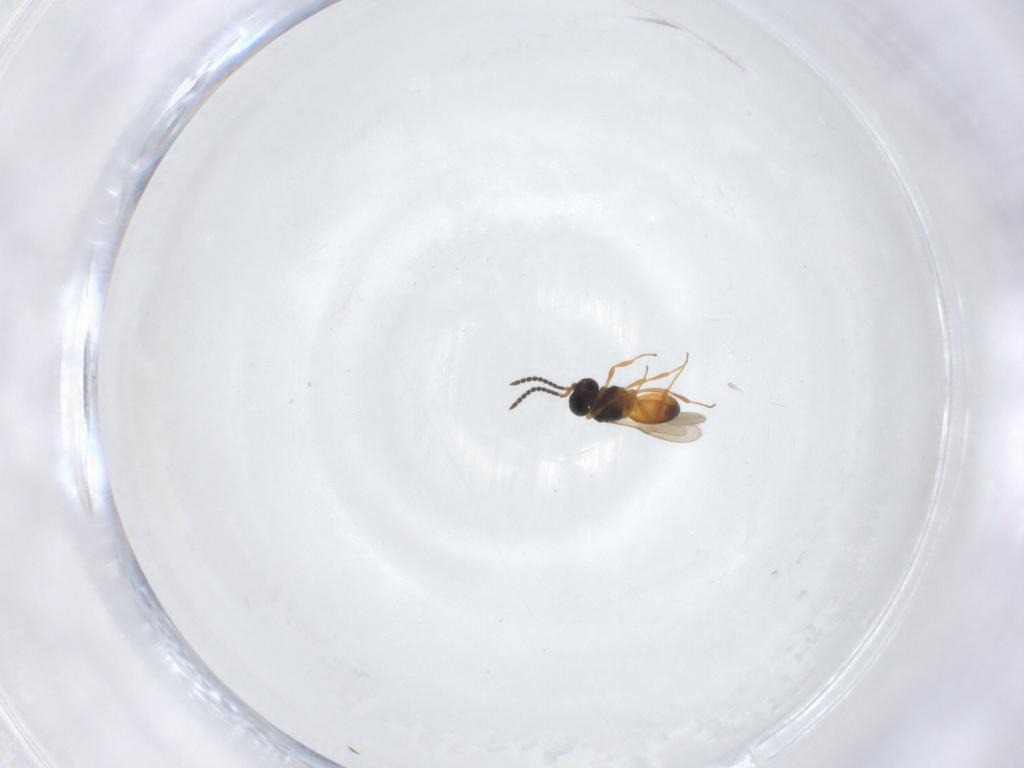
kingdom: Animalia
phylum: Arthropoda
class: Insecta
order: Hymenoptera
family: Scelionidae
